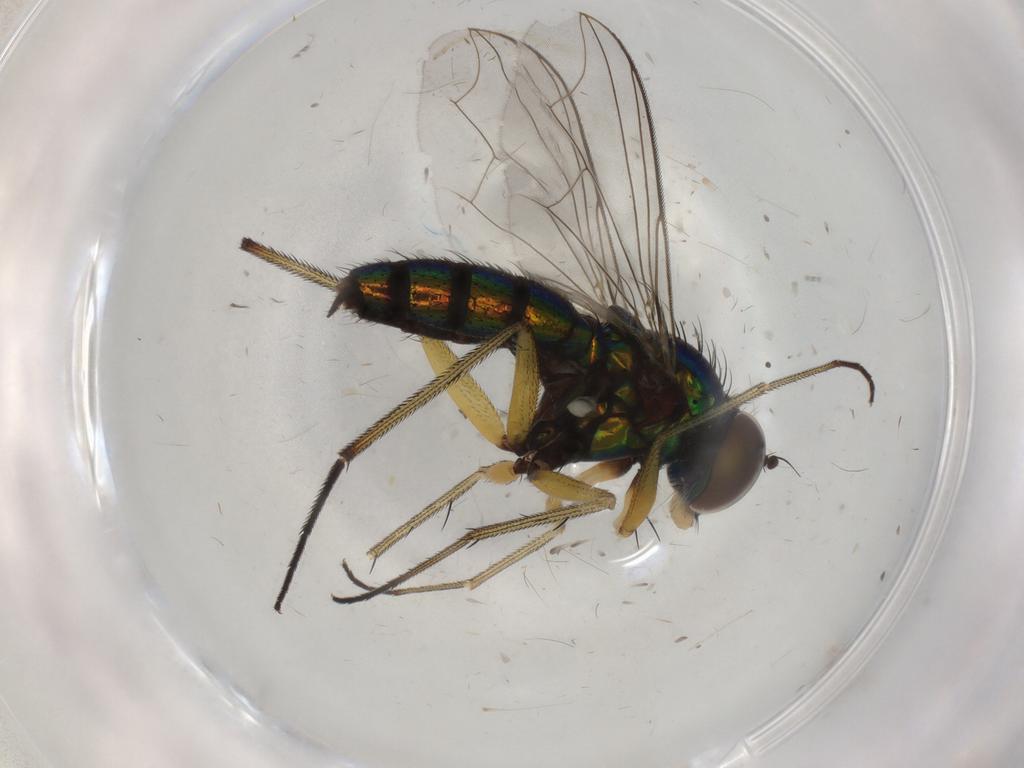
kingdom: Animalia
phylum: Arthropoda
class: Insecta
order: Diptera
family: Dolichopodidae
